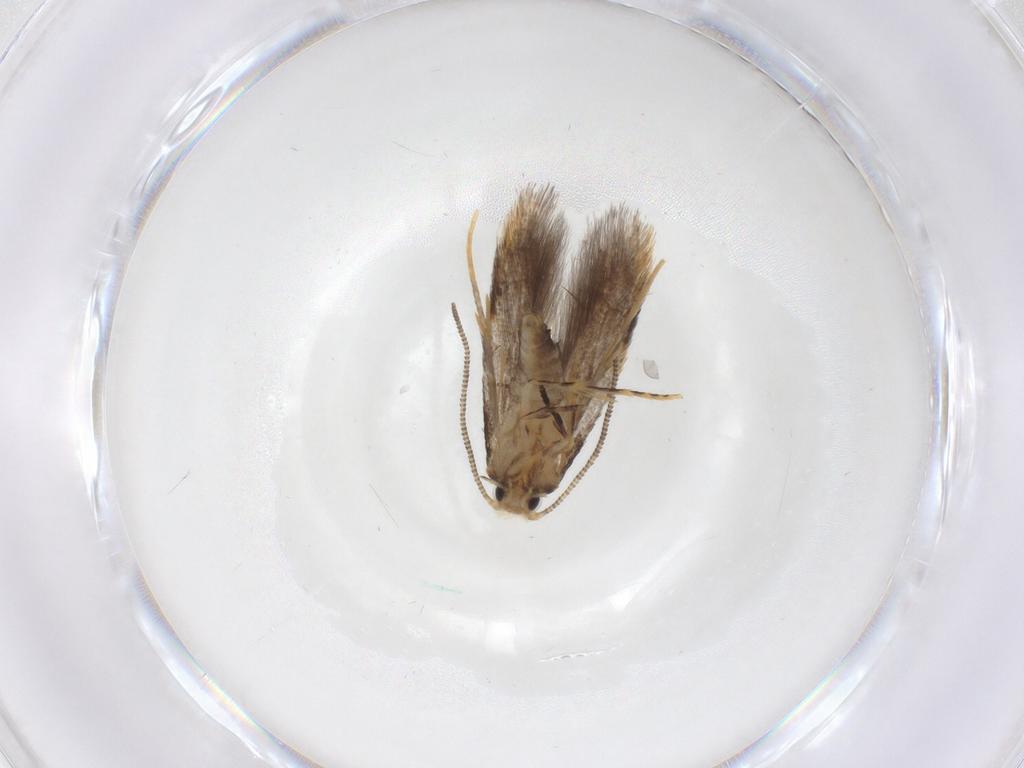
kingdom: Animalia
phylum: Arthropoda
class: Insecta
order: Lepidoptera
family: Tineidae
